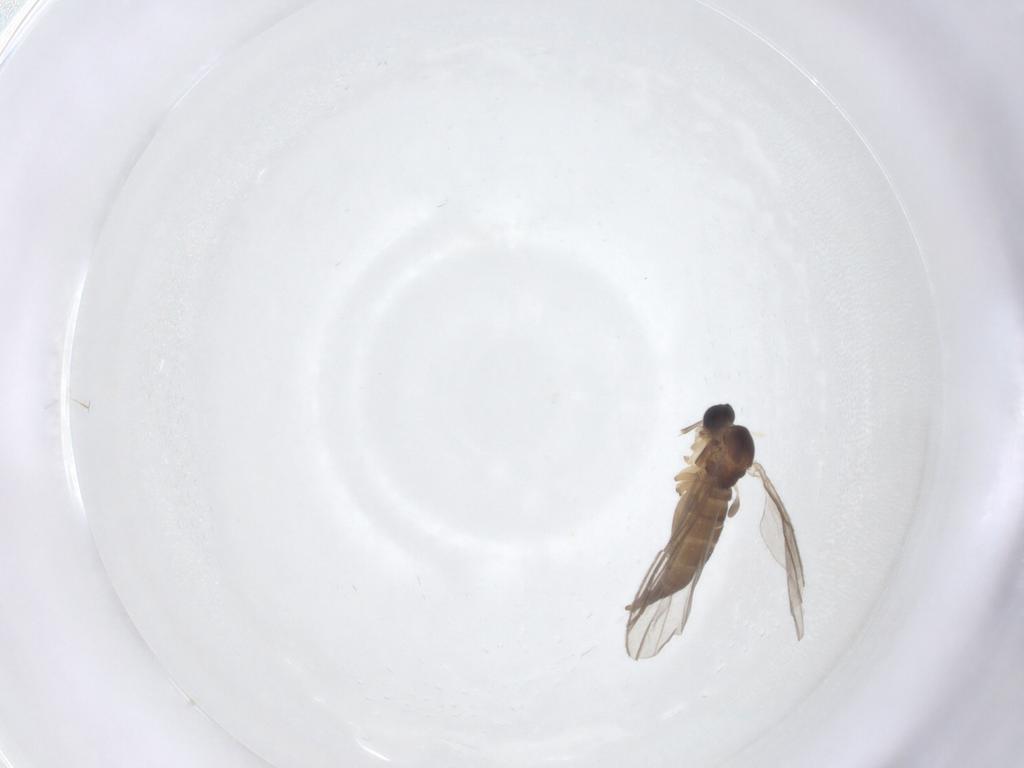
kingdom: Animalia
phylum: Arthropoda
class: Insecta
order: Diptera
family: Sciaridae
